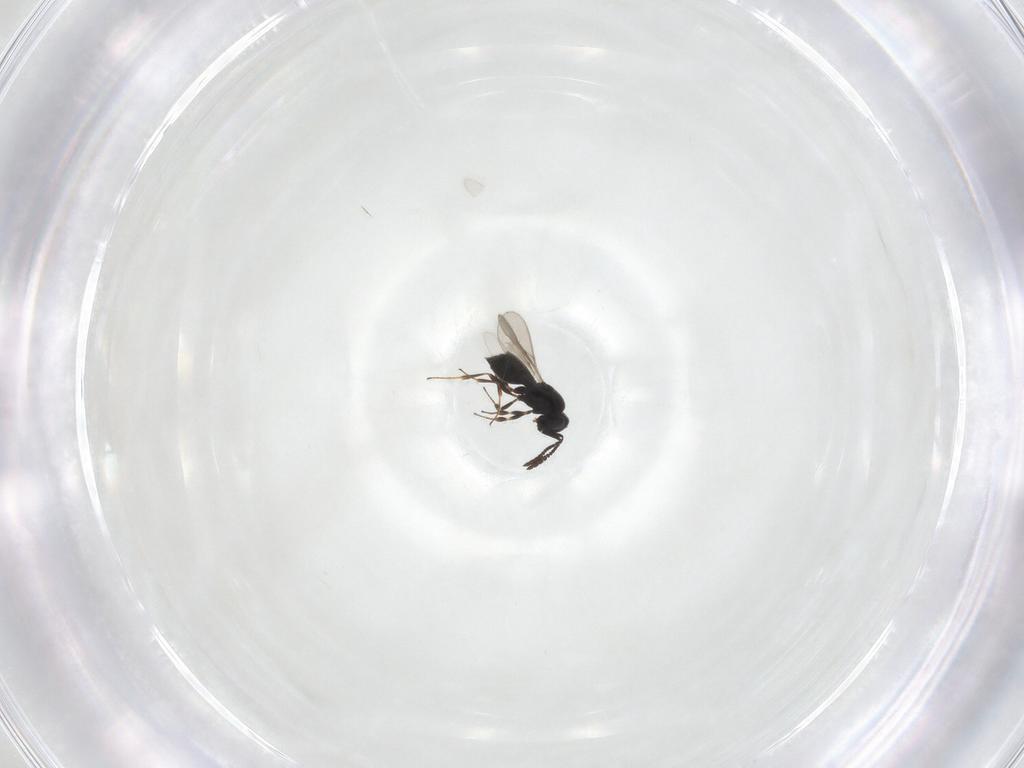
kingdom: Animalia
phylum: Arthropoda
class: Insecta
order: Hymenoptera
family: Scelionidae
